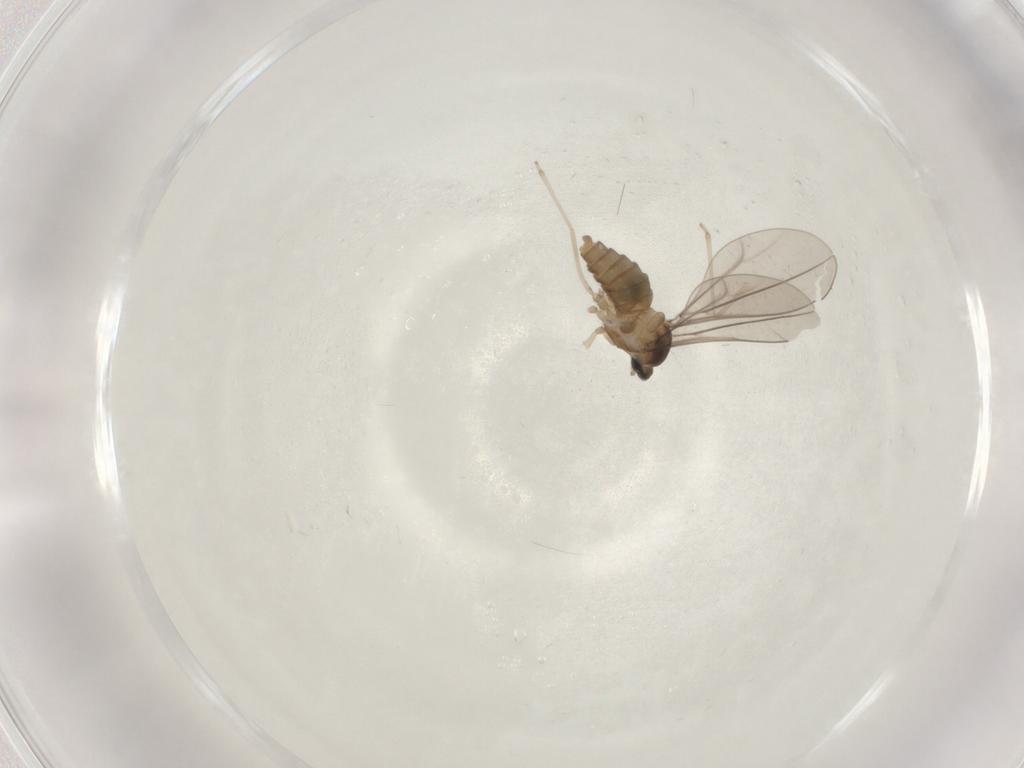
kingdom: Animalia
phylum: Arthropoda
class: Insecta
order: Diptera
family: Cecidomyiidae
